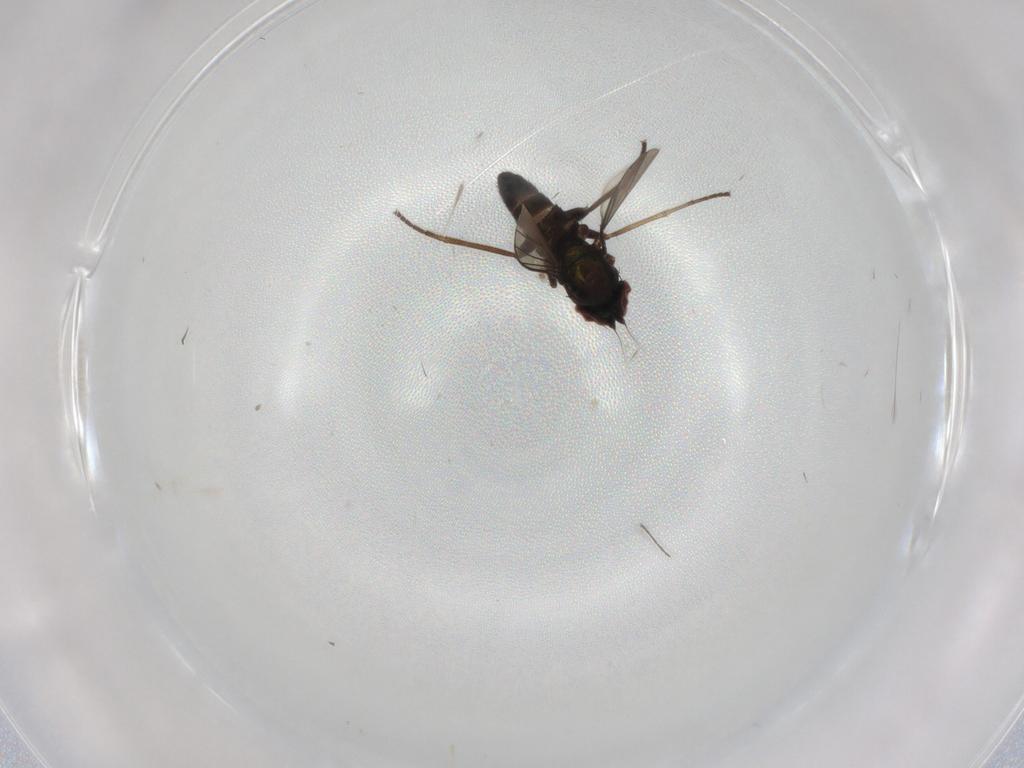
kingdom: Animalia
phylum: Arthropoda
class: Insecta
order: Diptera
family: Dolichopodidae
